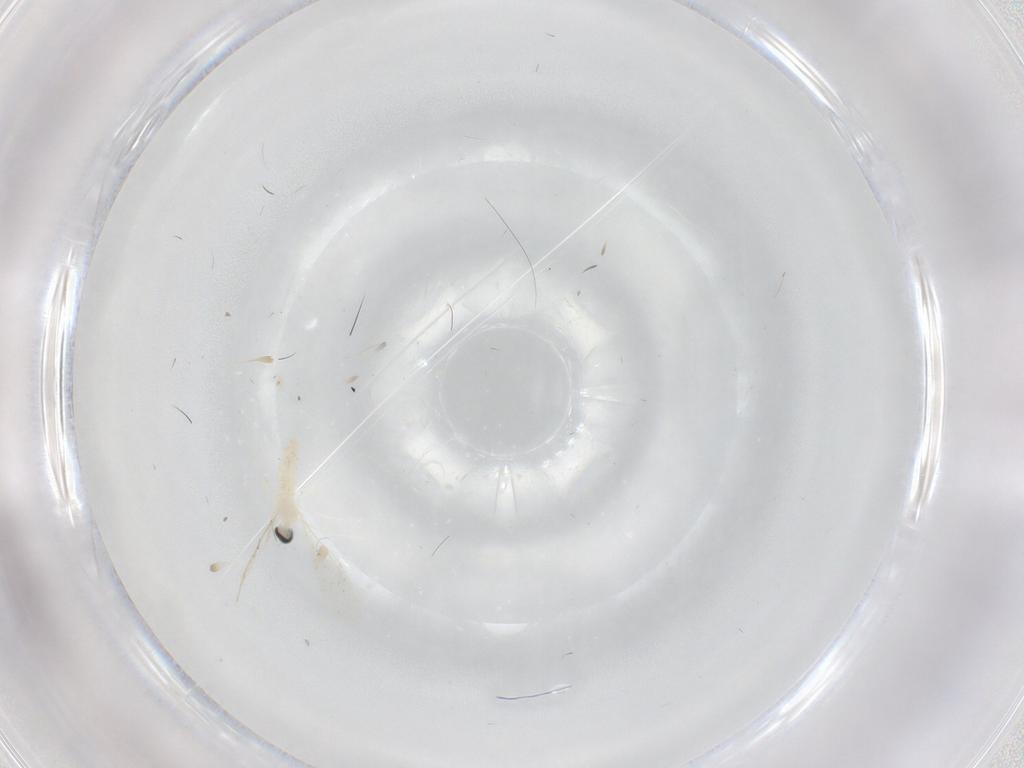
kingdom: Animalia
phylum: Arthropoda
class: Insecta
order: Diptera
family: Cecidomyiidae
